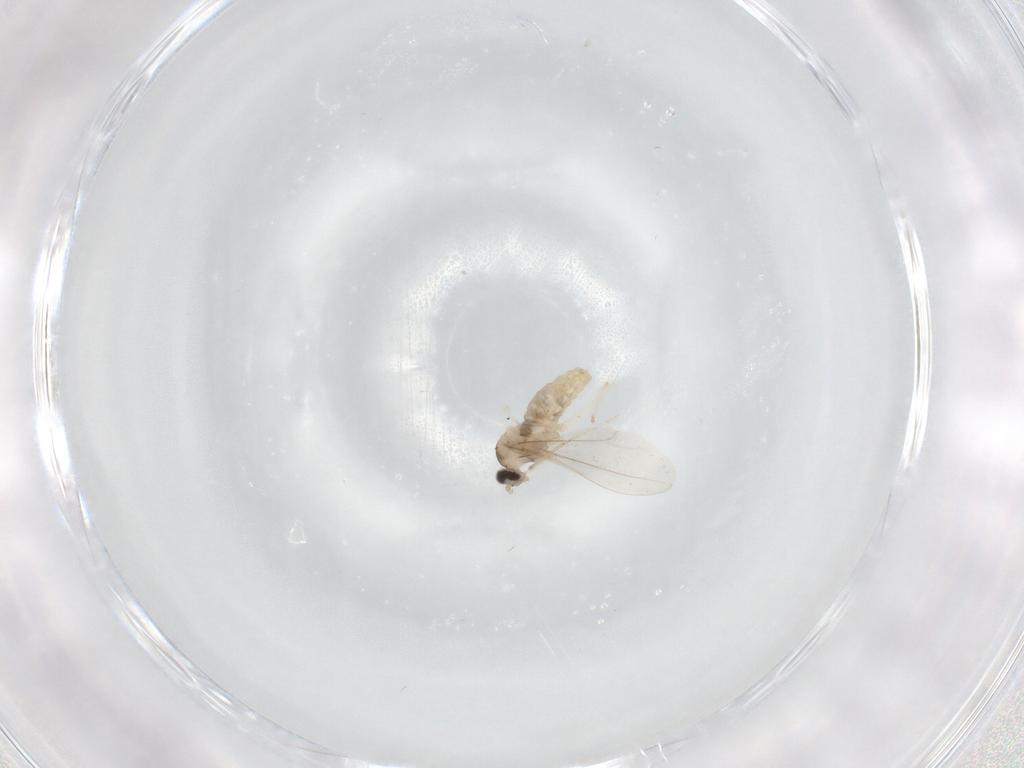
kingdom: Animalia
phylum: Arthropoda
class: Insecta
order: Diptera
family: Cecidomyiidae
